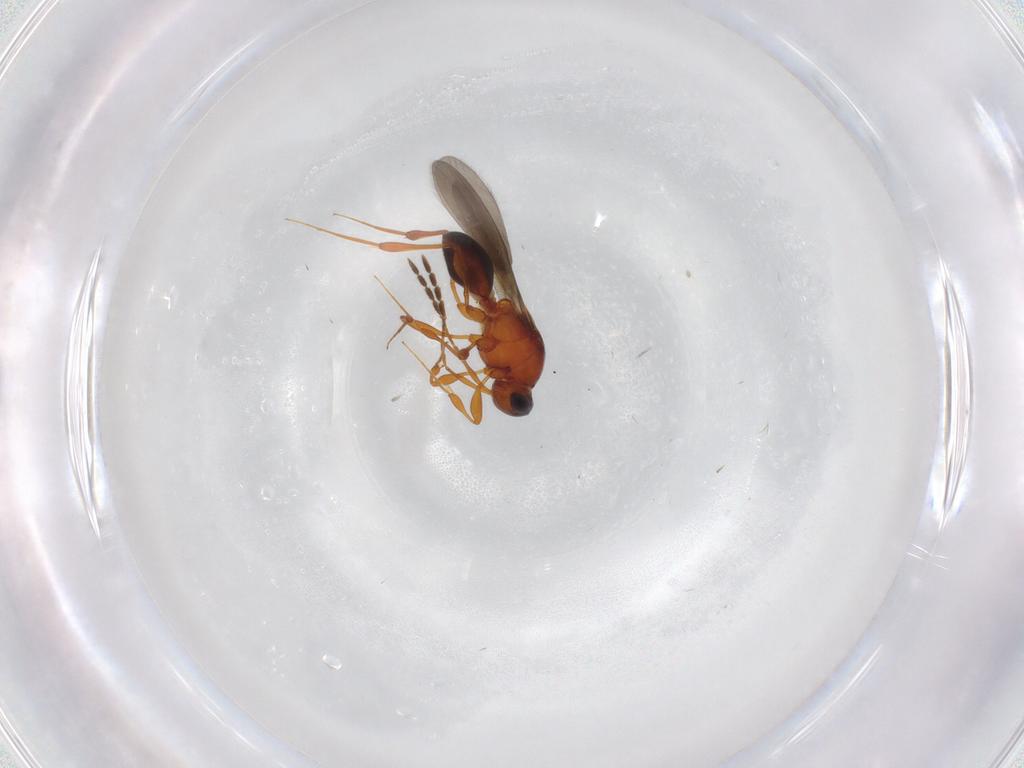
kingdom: Animalia
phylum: Arthropoda
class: Insecta
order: Hymenoptera
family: Platygastridae
